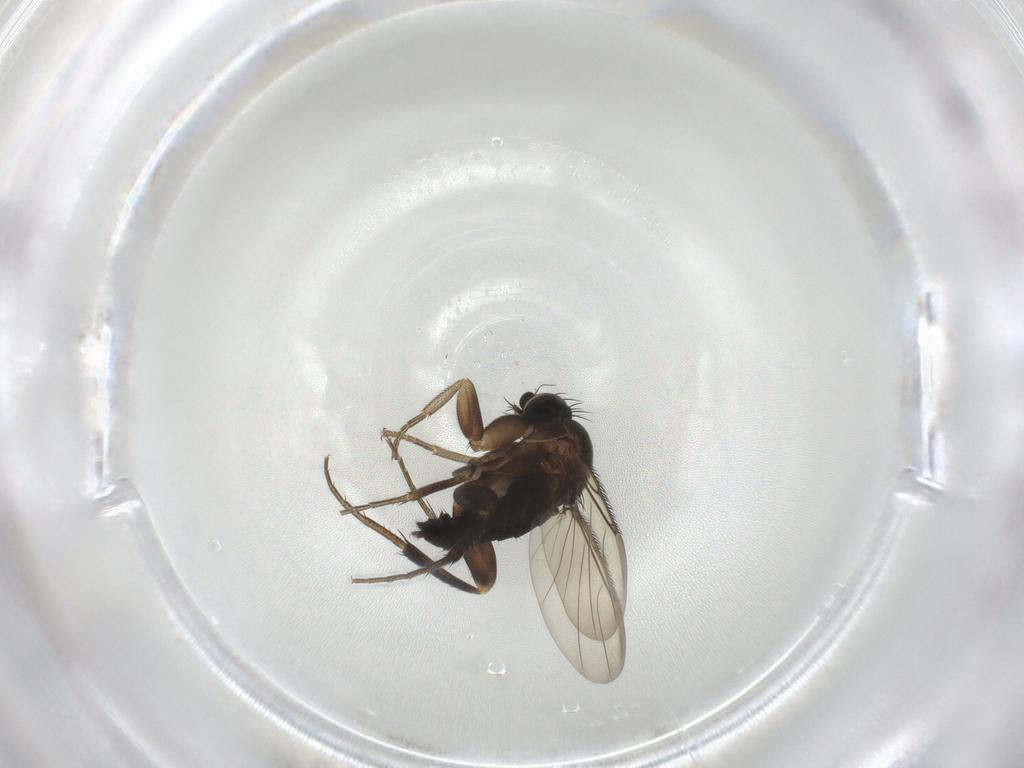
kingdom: Animalia
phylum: Arthropoda
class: Insecta
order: Diptera
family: Psychodidae
